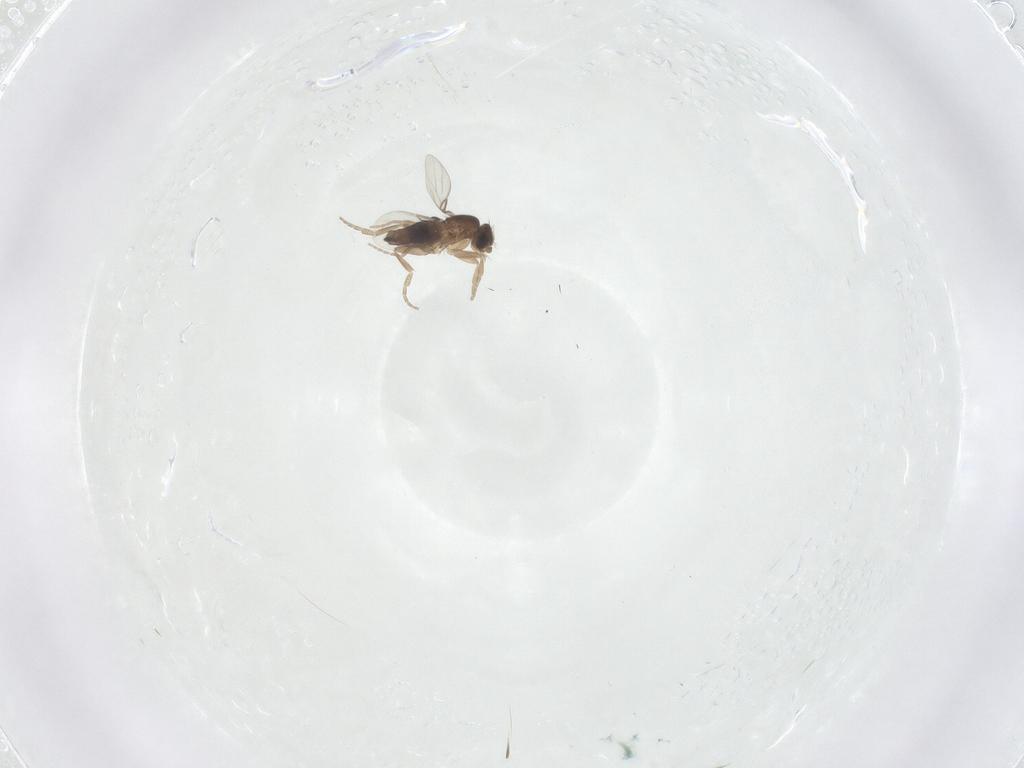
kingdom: Animalia
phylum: Arthropoda
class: Insecta
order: Diptera
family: Phoridae
